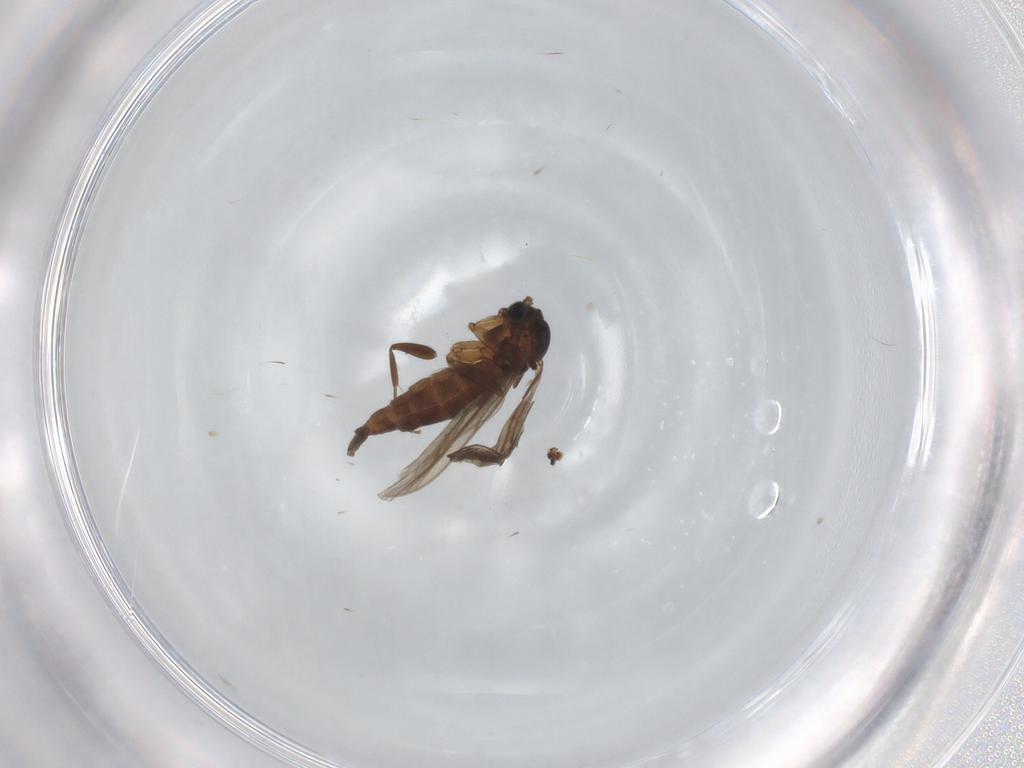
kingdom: Animalia
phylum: Arthropoda
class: Insecta
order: Diptera
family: Sciaridae
